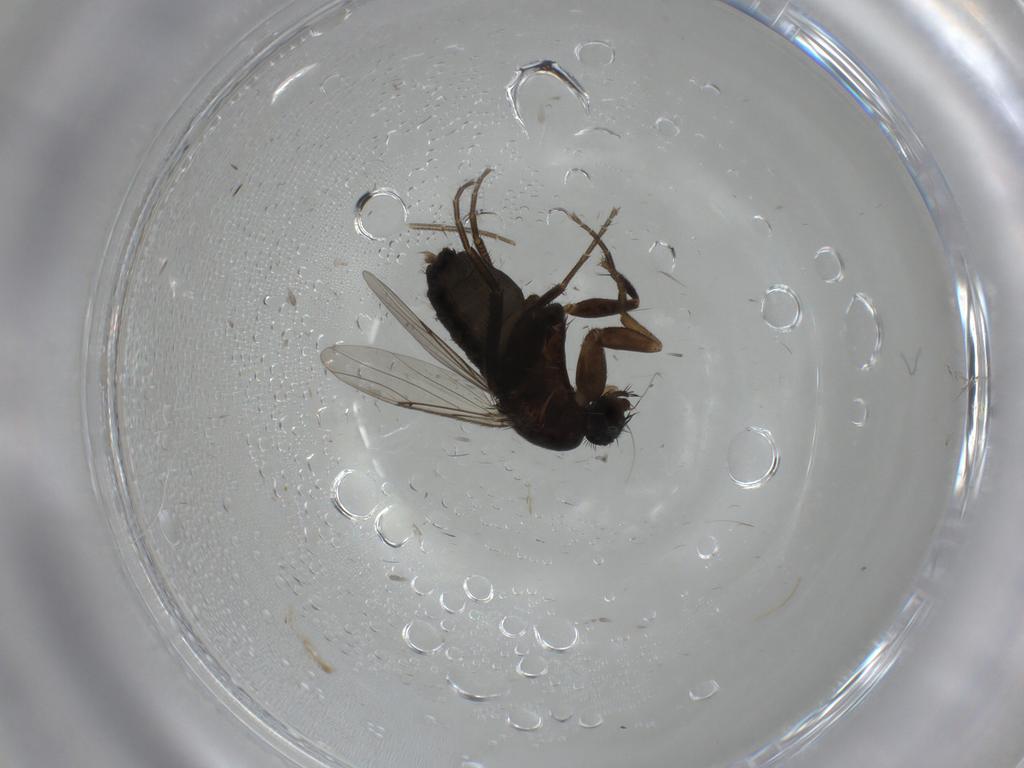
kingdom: Animalia
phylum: Arthropoda
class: Insecta
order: Diptera
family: Phoridae
